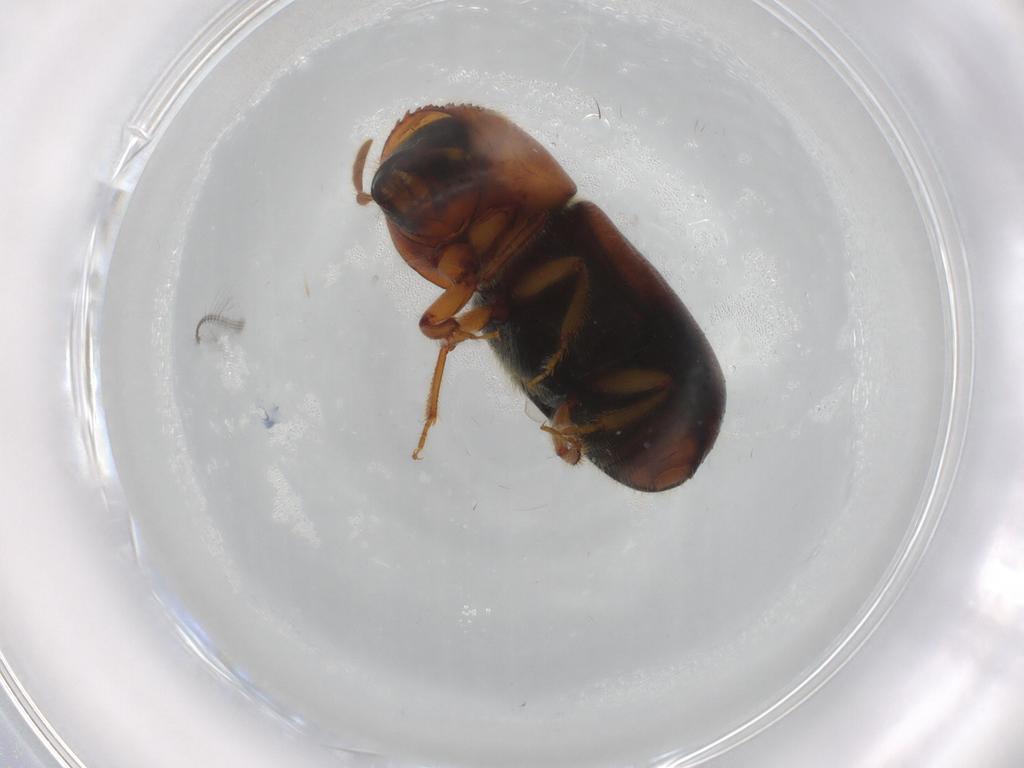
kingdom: Animalia
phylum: Arthropoda
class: Insecta
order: Coleoptera
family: Curculionidae
